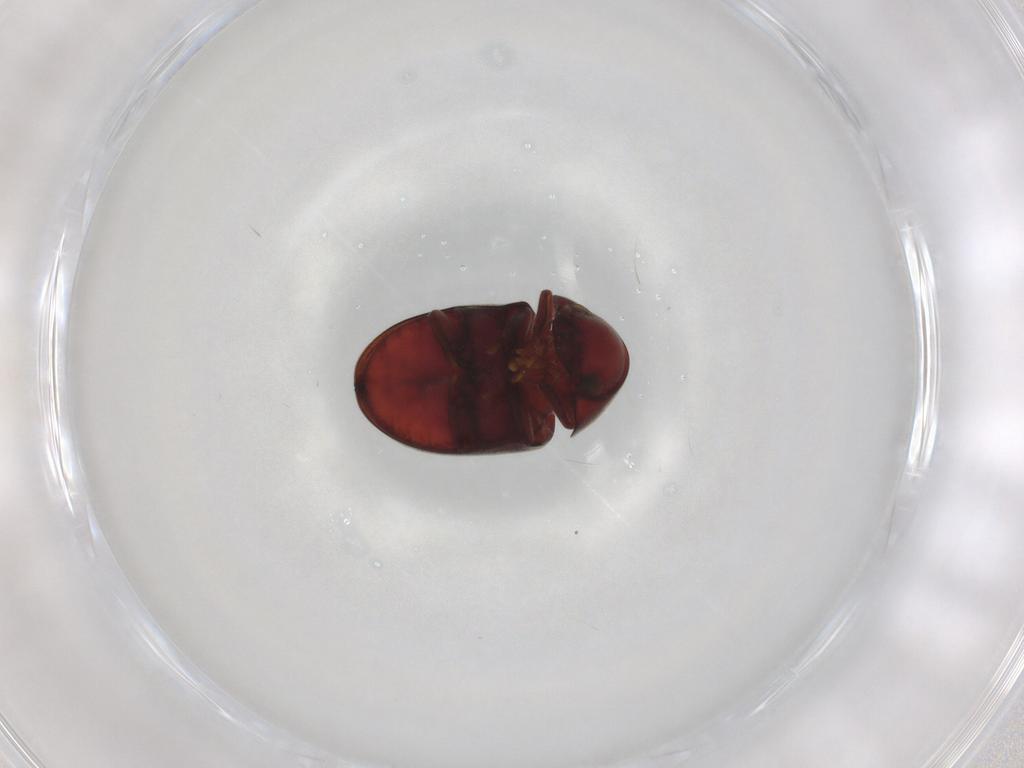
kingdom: Animalia
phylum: Arthropoda
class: Insecta
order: Coleoptera
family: Ptinidae
